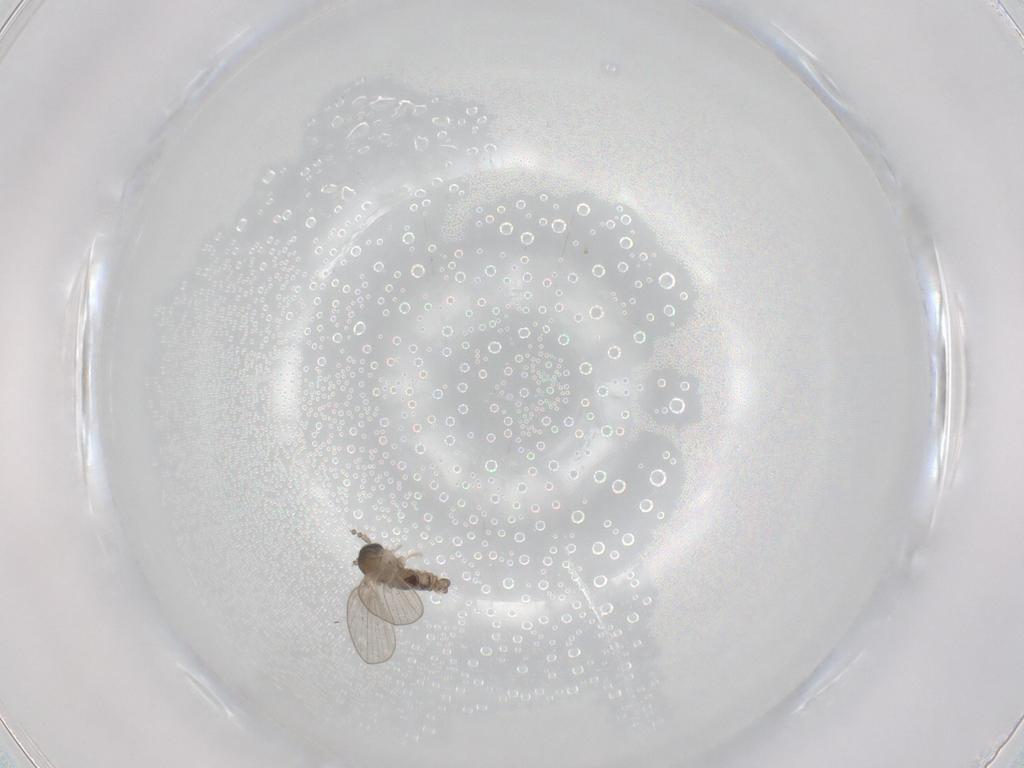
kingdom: Animalia
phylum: Arthropoda
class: Insecta
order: Diptera
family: Psychodidae
